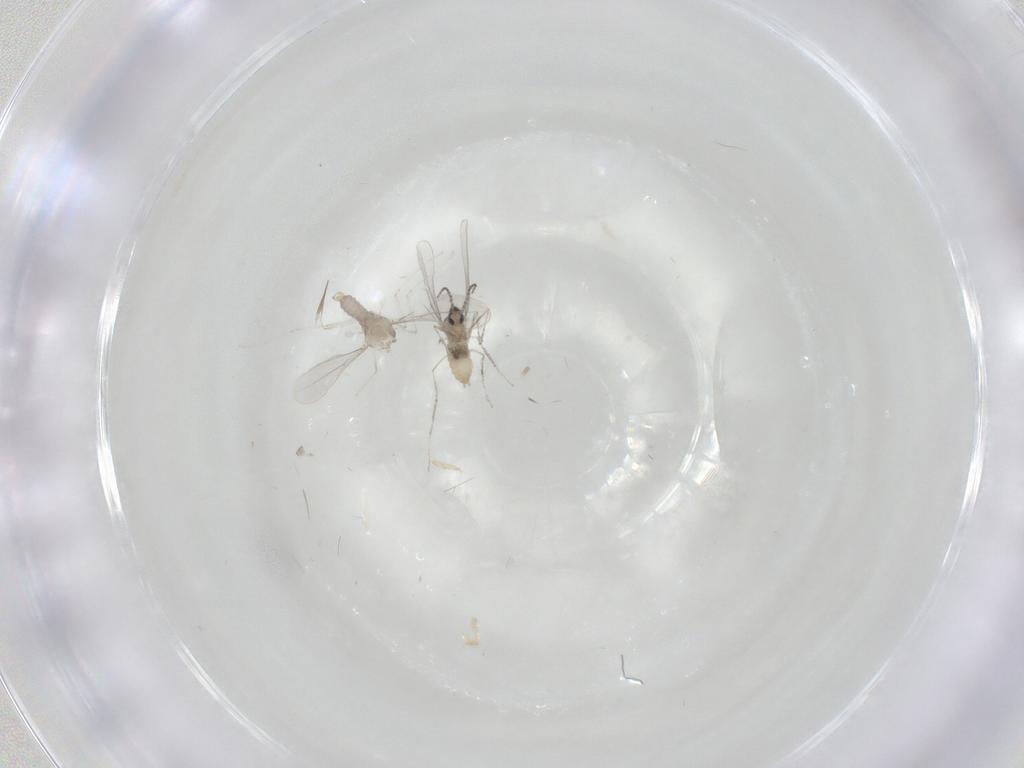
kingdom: Animalia
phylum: Arthropoda
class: Insecta
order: Diptera
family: Cecidomyiidae
